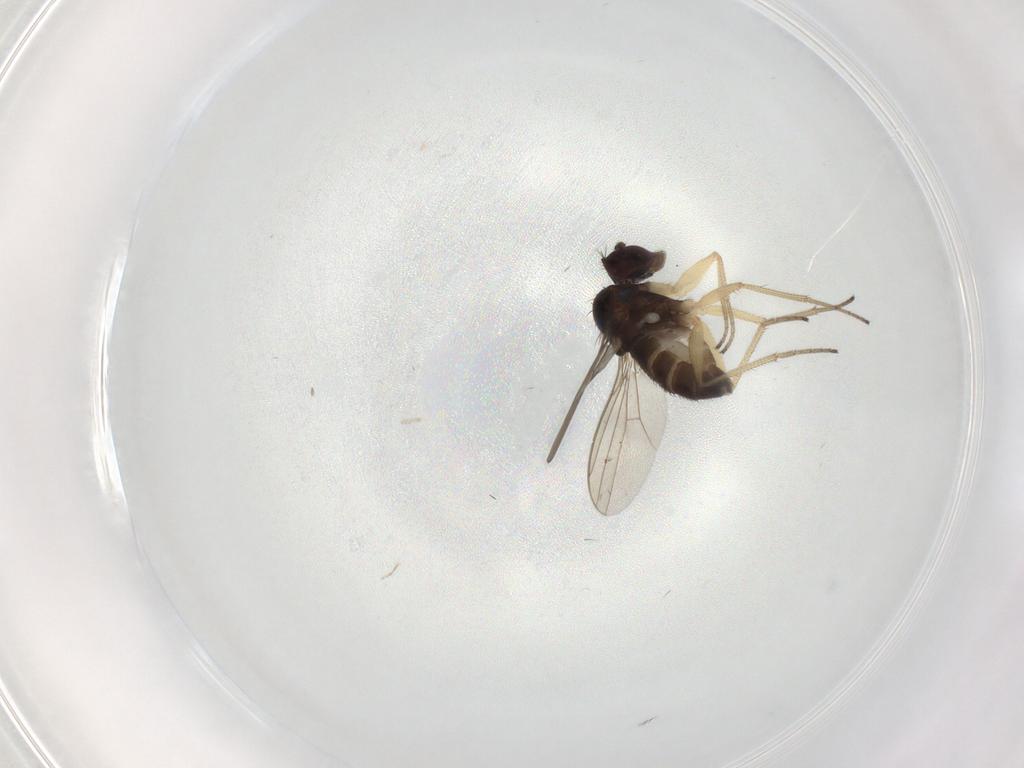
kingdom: Animalia
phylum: Arthropoda
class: Insecta
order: Diptera
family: Dolichopodidae
